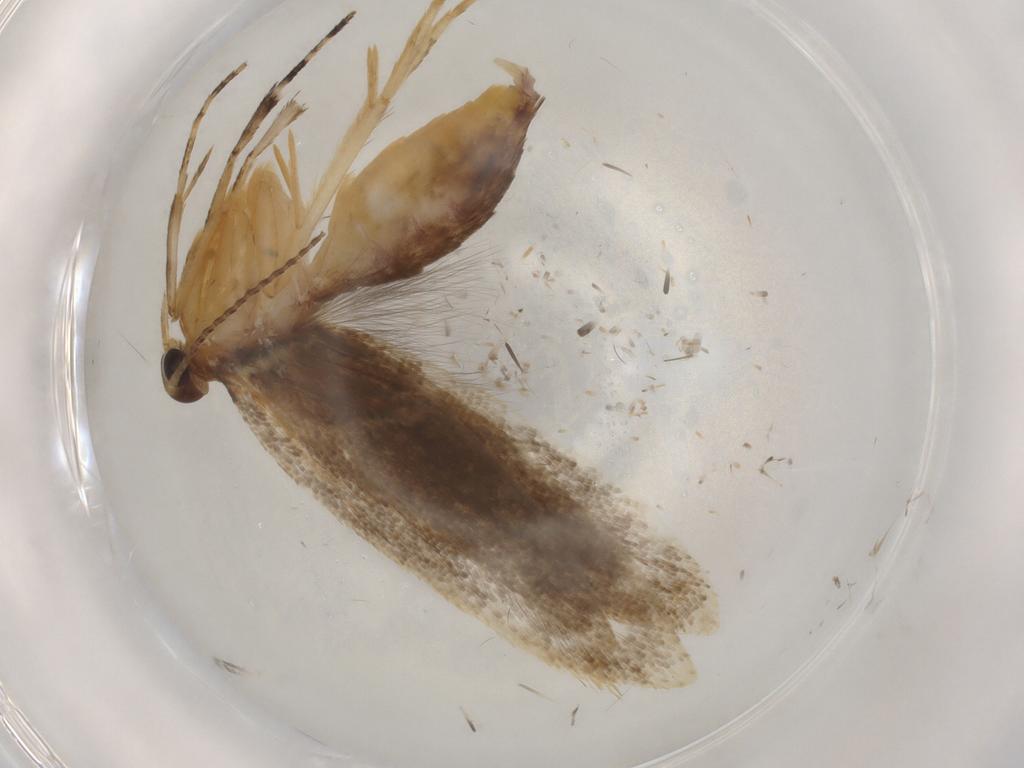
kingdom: Animalia
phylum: Arthropoda
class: Insecta
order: Lepidoptera
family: Oecophoridae
